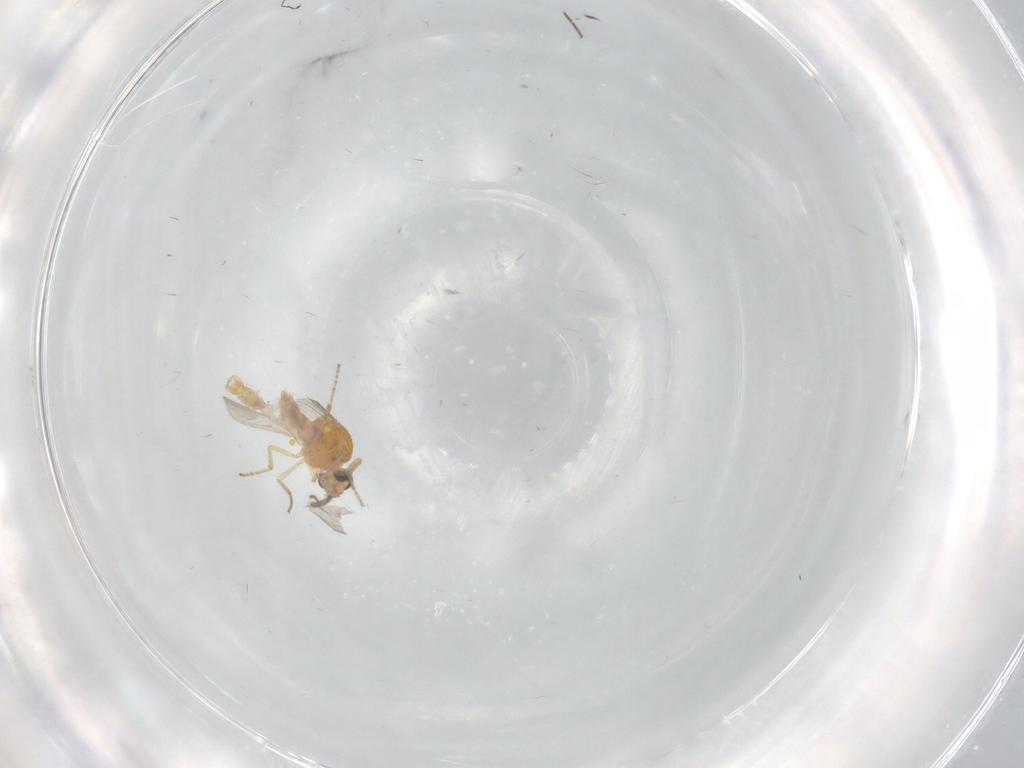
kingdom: Animalia
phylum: Arthropoda
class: Insecta
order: Diptera
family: Ceratopogonidae
